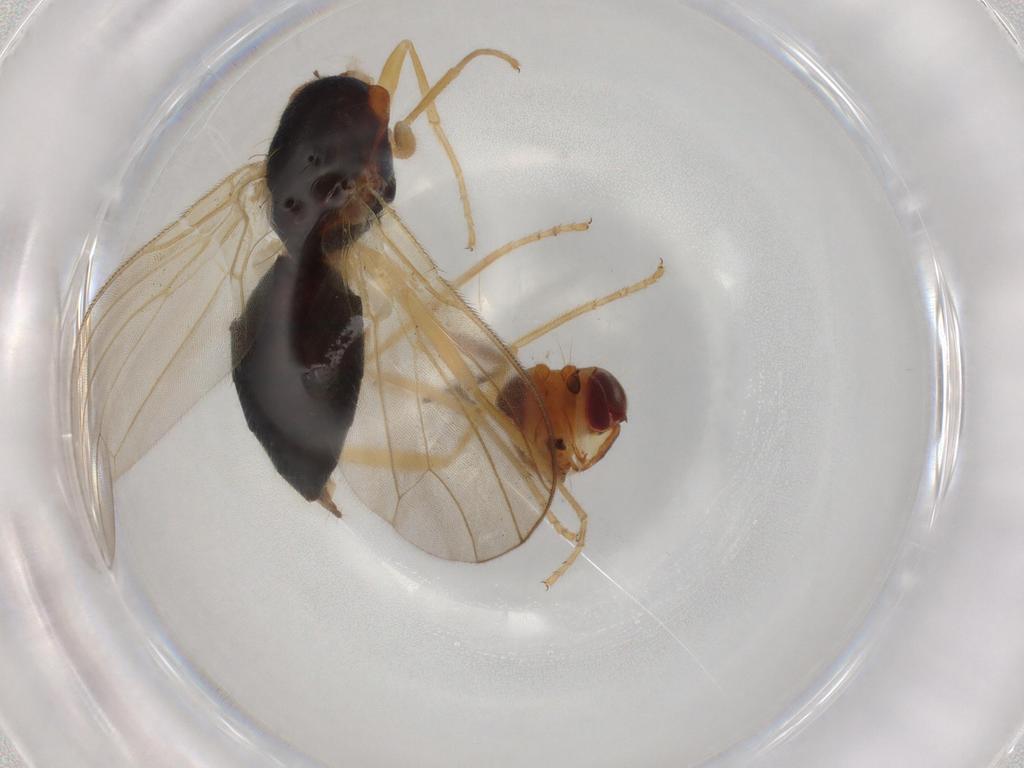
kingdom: Animalia
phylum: Arthropoda
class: Insecta
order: Diptera
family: Hybotidae
